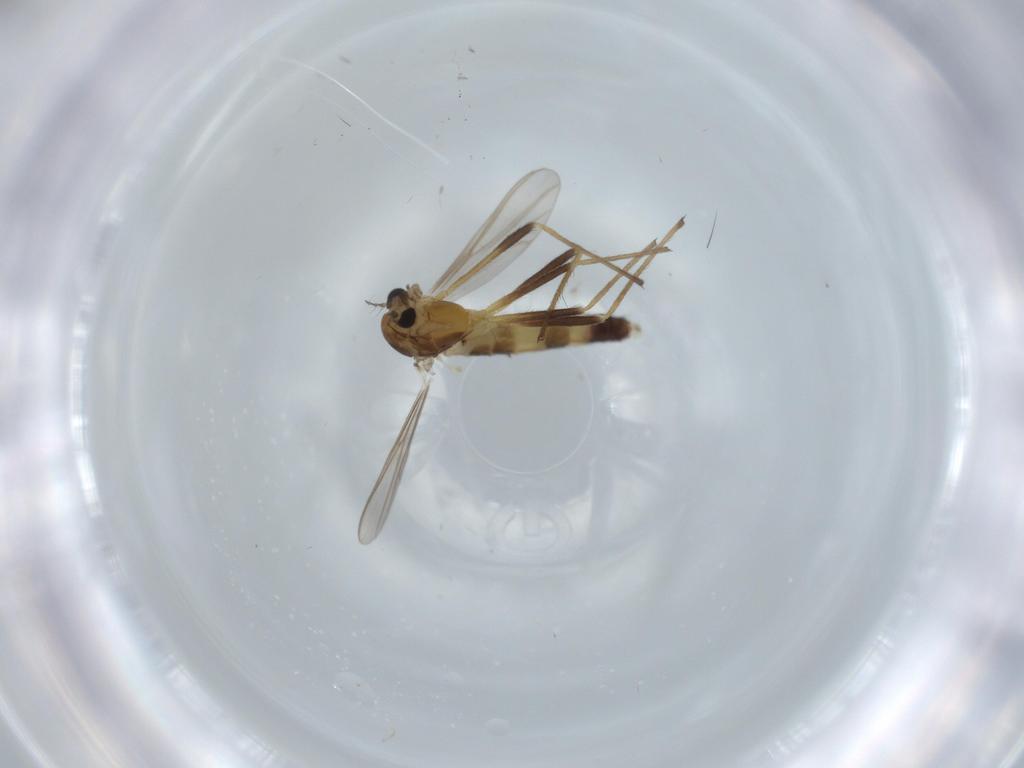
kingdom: Animalia
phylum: Arthropoda
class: Insecta
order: Diptera
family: Chironomidae
